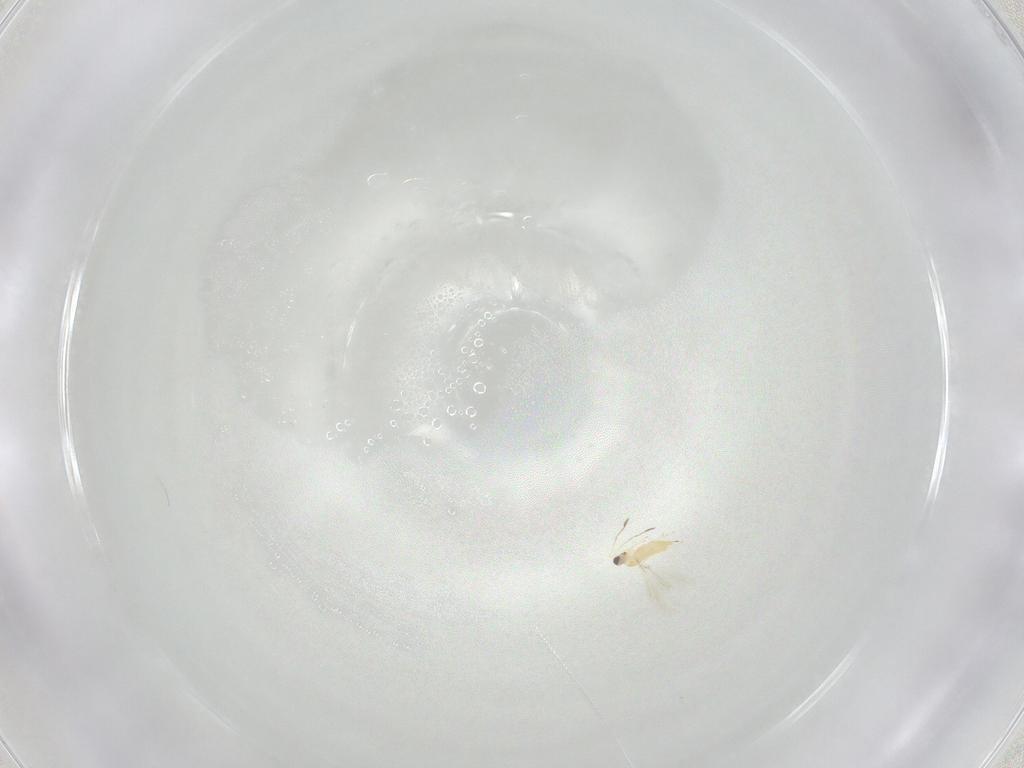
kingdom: Animalia
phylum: Arthropoda
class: Insecta
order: Hymenoptera
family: Mymaridae
